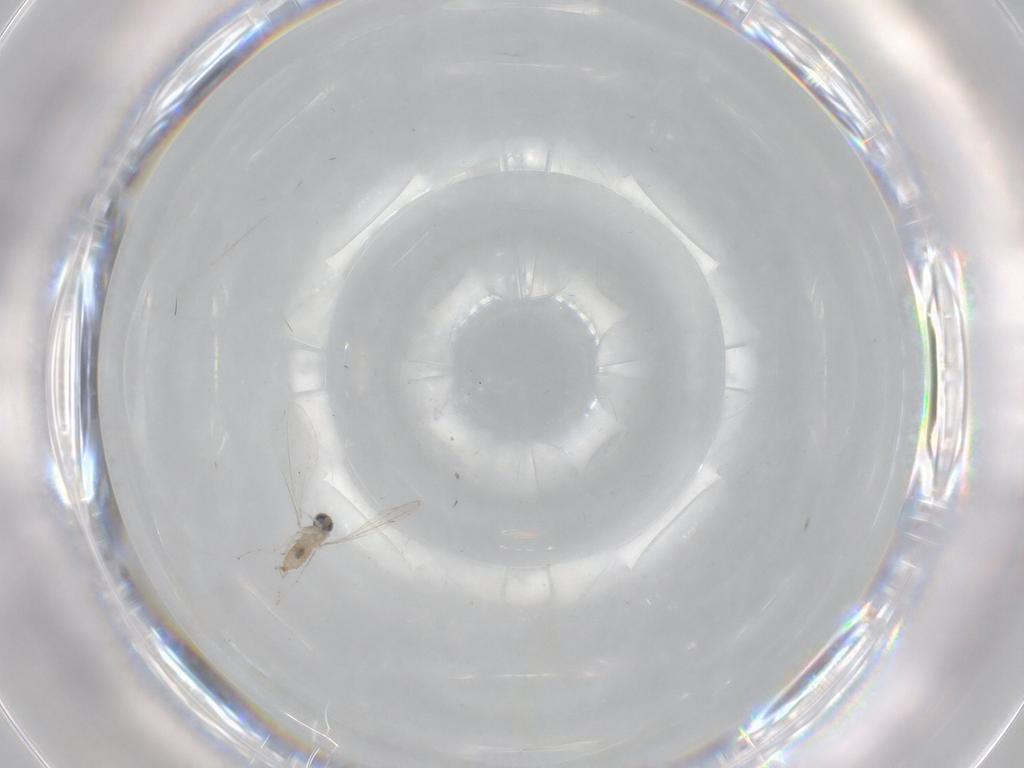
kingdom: Animalia
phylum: Arthropoda
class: Insecta
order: Diptera
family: Cecidomyiidae
